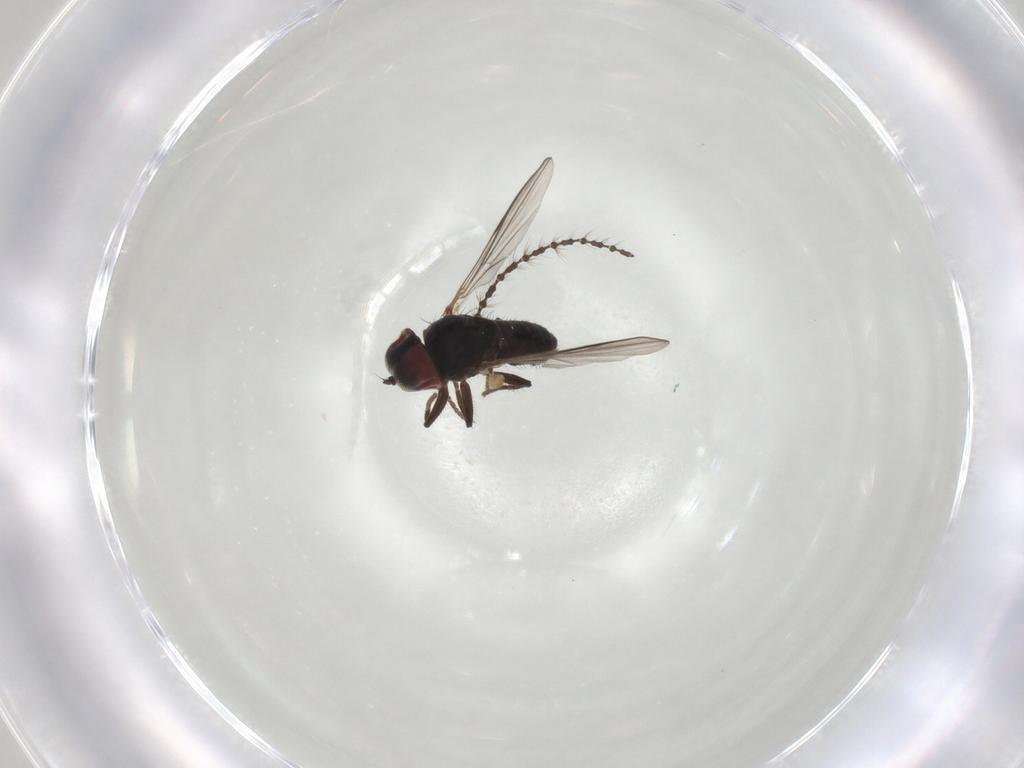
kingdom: Animalia
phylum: Arthropoda
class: Insecta
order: Diptera
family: Pipunculidae
